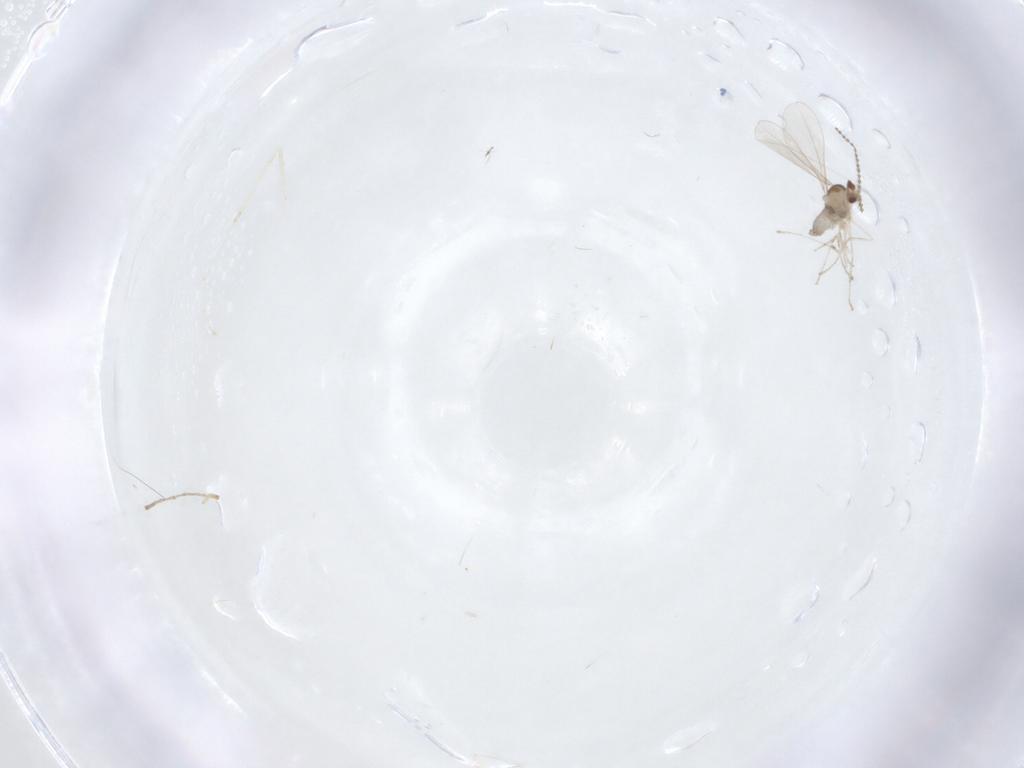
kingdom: Animalia
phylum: Arthropoda
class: Insecta
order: Diptera
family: Cecidomyiidae
